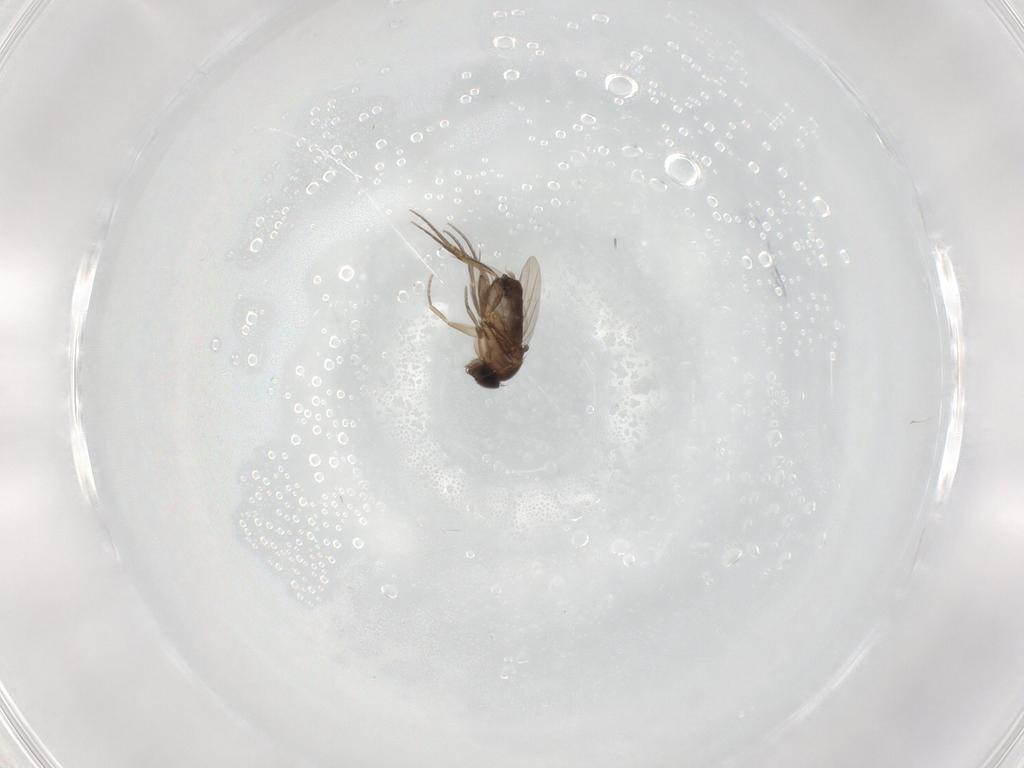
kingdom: Animalia
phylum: Arthropoda
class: Insecta
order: Diptera
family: Phoridae
